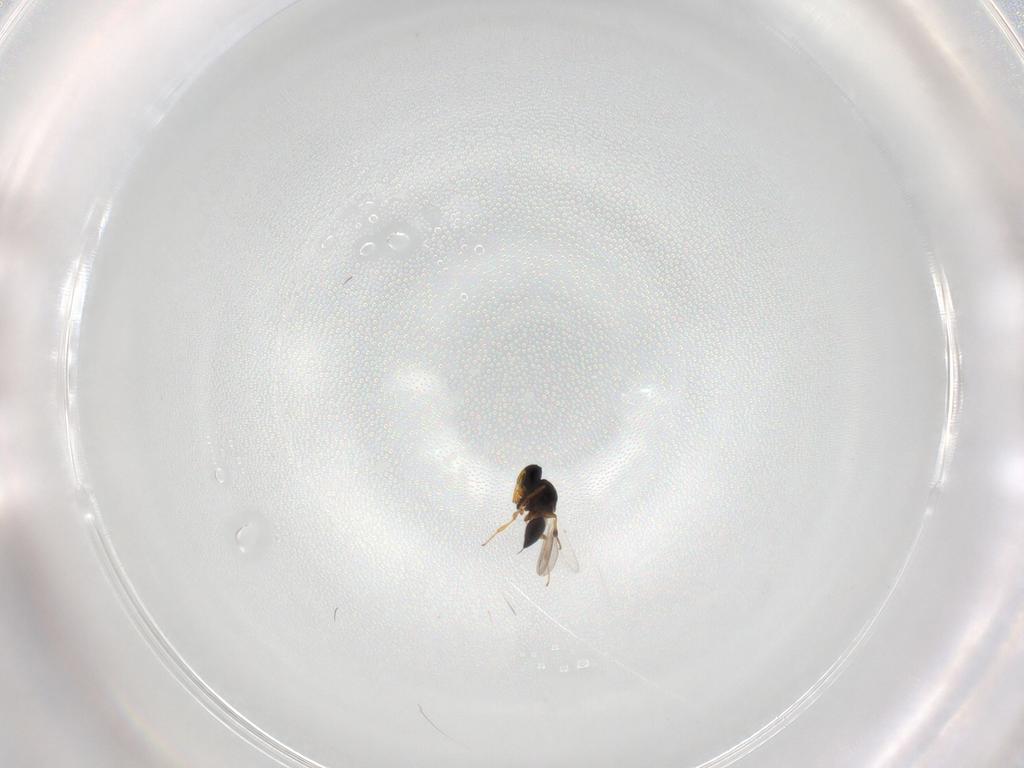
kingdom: Animalia
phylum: Arthropoda
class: Insecta
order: Hymenoptera
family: Platygastridae
